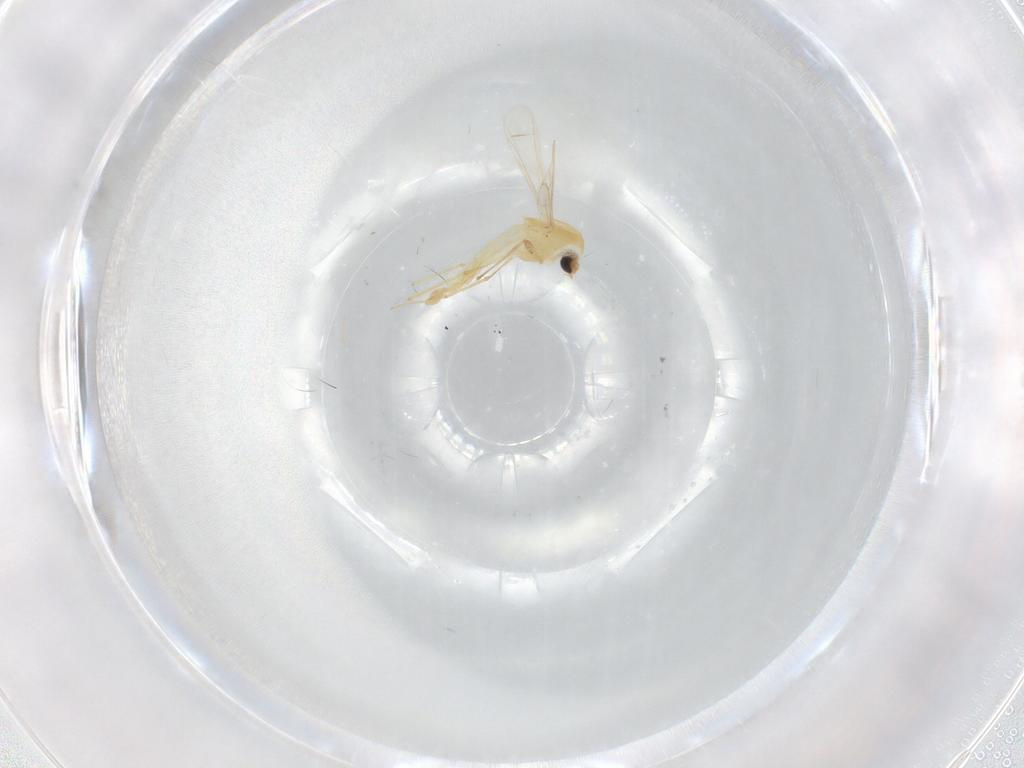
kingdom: Animalia
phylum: Arthropoda
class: Insecta
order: Diptera
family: Chironomidae
